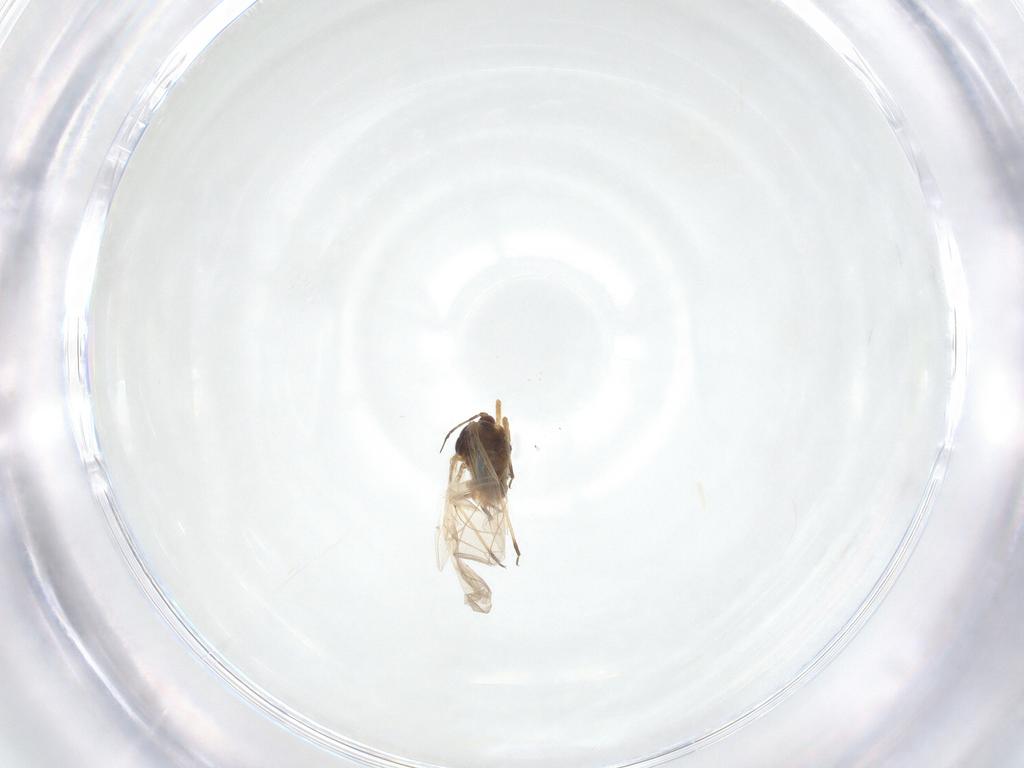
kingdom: Animalia
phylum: Arthropoda
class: Insecta
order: Hemiptera
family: Aphididae
